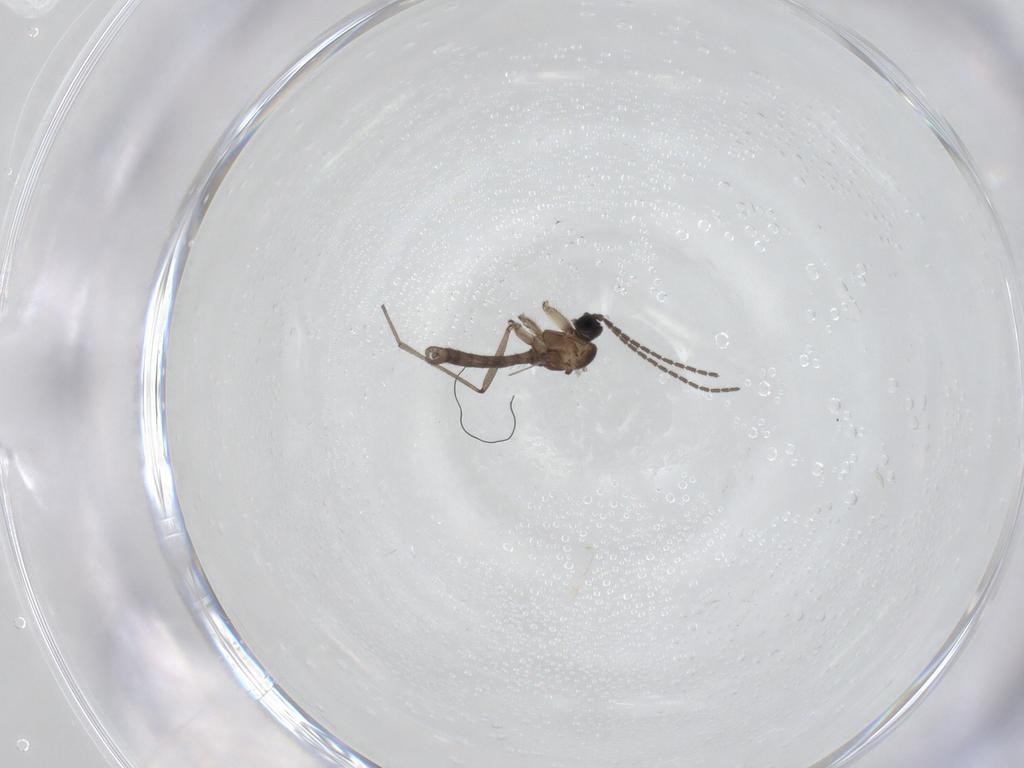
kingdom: Animalia
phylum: Arthropoda
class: Insecta
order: Diptera
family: Sciaridae
